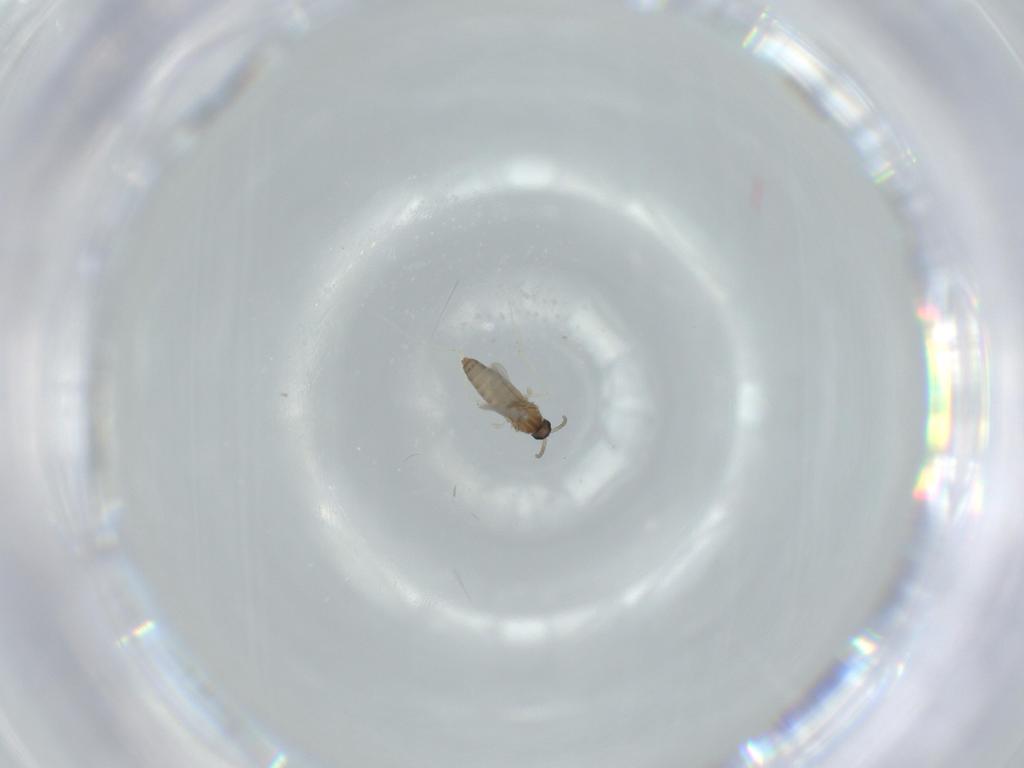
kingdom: Animalia
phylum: Arthropoda
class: Insecta
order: Diptera
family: Cecidomyiidae
